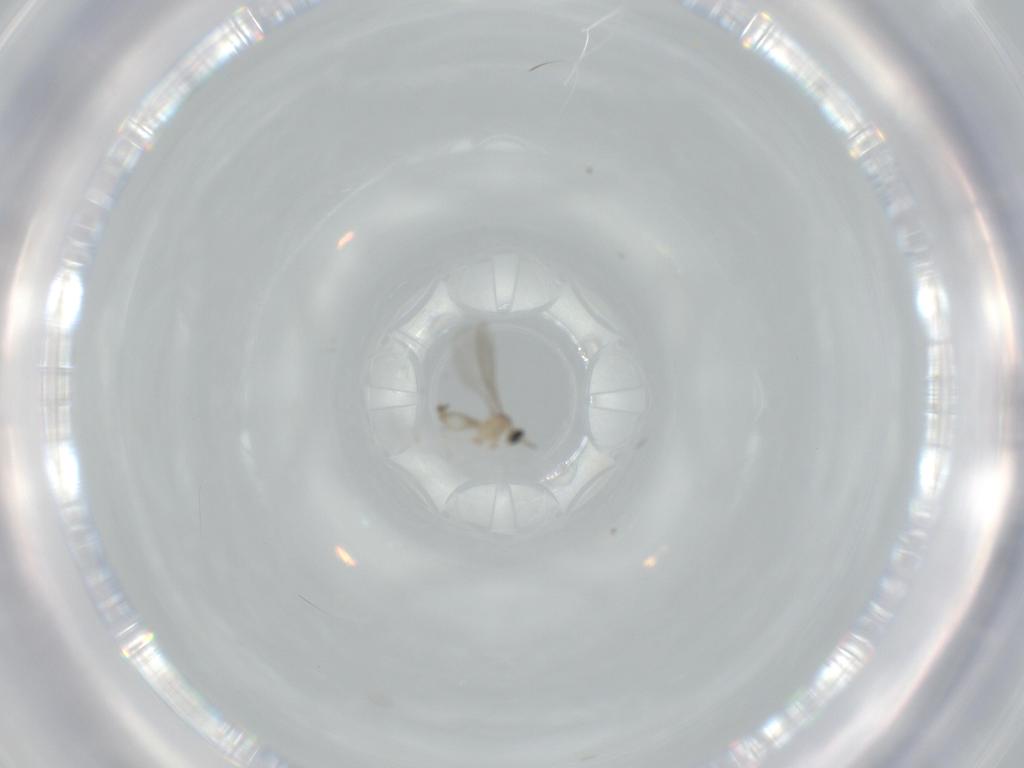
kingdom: Animalia
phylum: Arthropoda
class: Insecta
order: Diptera
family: Cecidomyiidae
